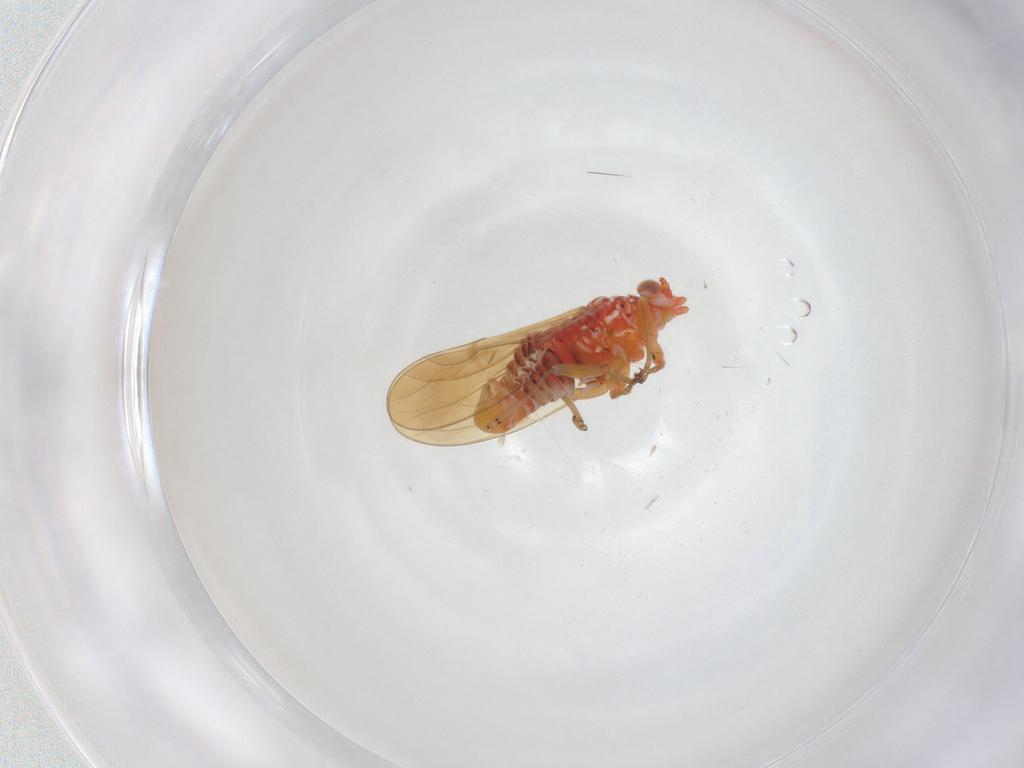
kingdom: Animalia
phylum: Arthropoda
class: Insecta
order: Hemiptera
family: Psyllidae
